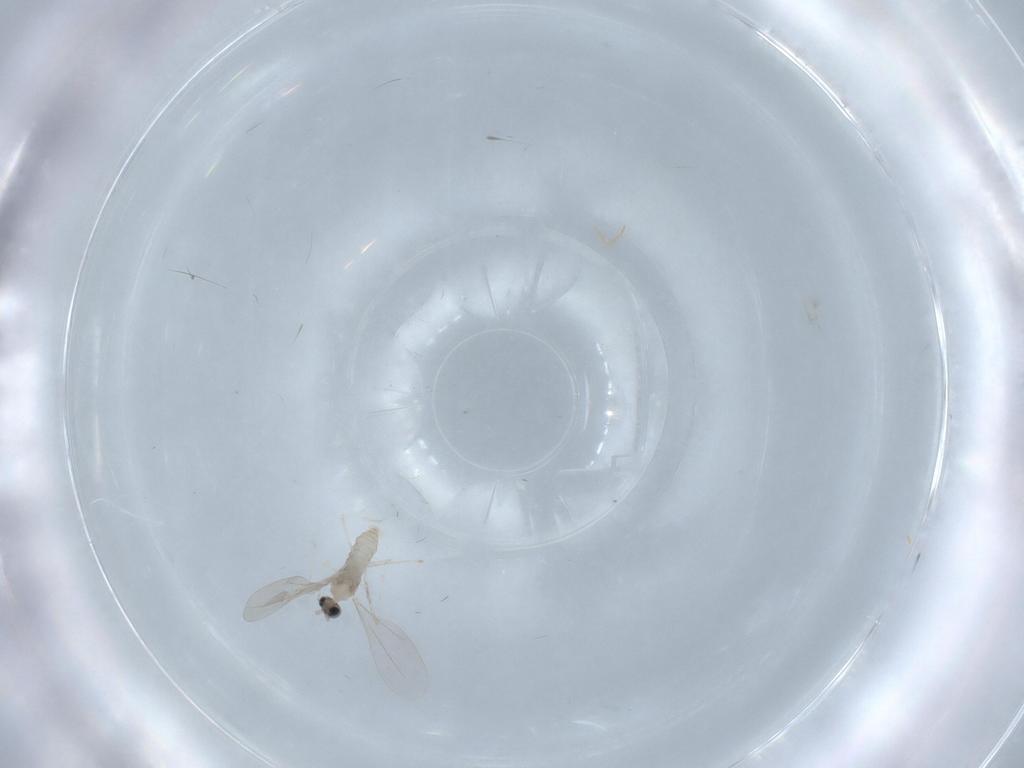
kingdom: Animalia
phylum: Arthropoda
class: Insecta
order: Diptera
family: Cecidomyiidae
